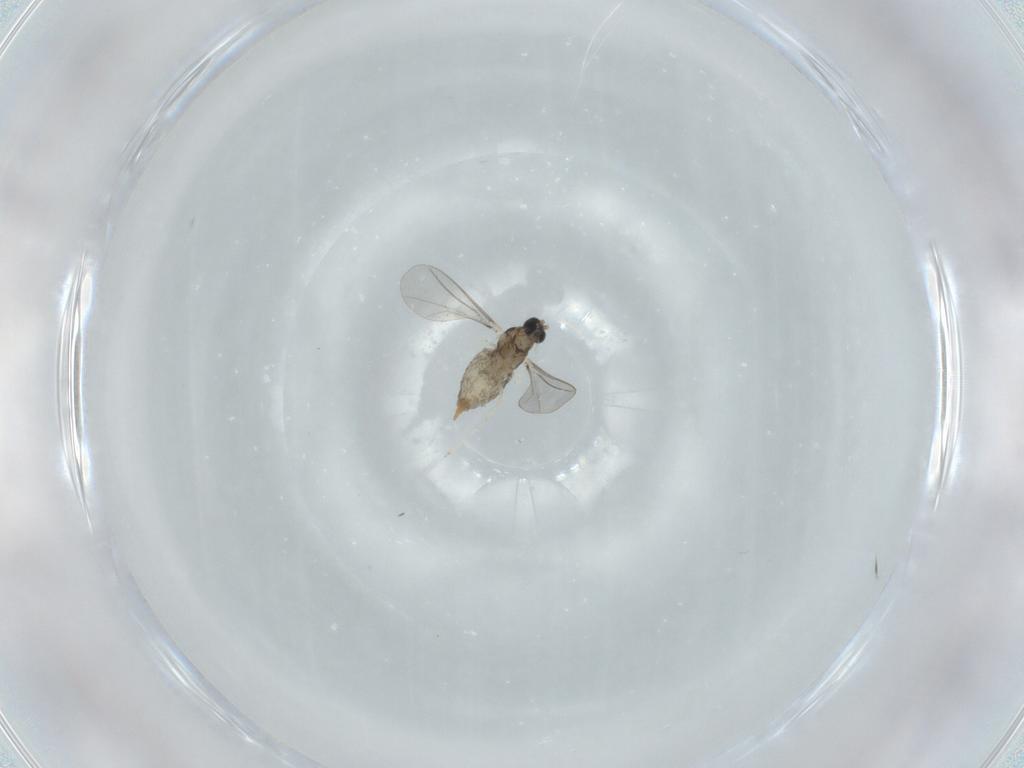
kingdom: Animalia
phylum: Arthropoda
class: Insecta
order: Diptera
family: Cecidomyiidae
